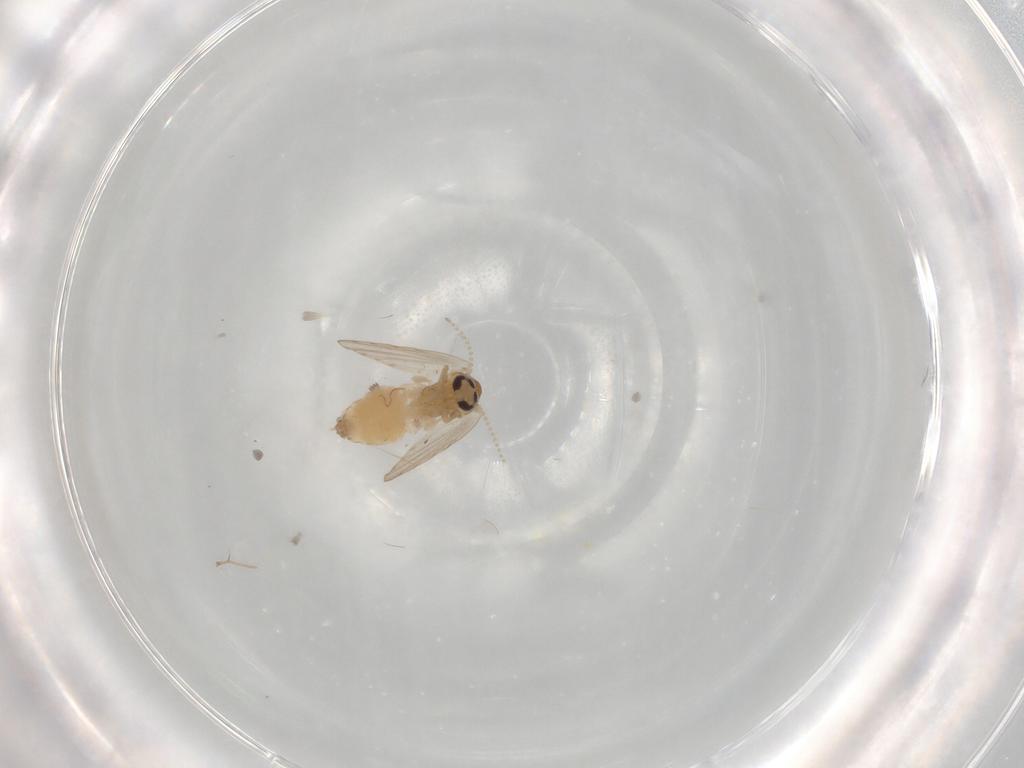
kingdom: Animalia
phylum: Arthropoda
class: Insecta
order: Diptera
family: Psychodidae
